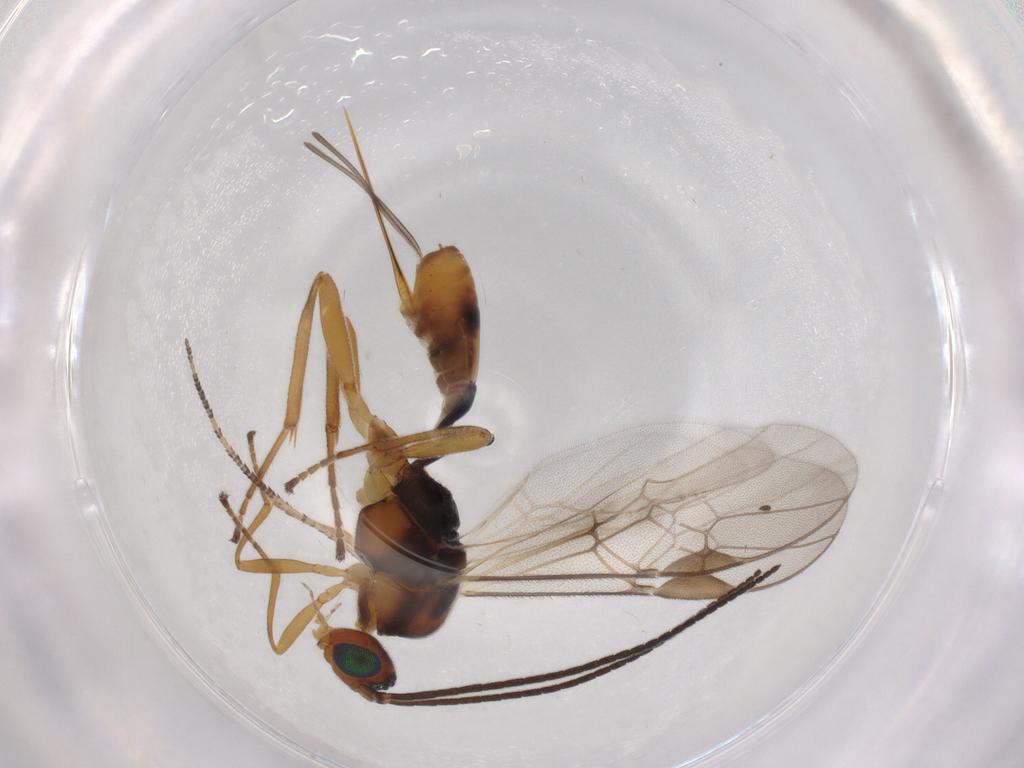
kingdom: Animalia
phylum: Arthropoda
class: Insecta
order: Hymenoptera
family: Braconidae
